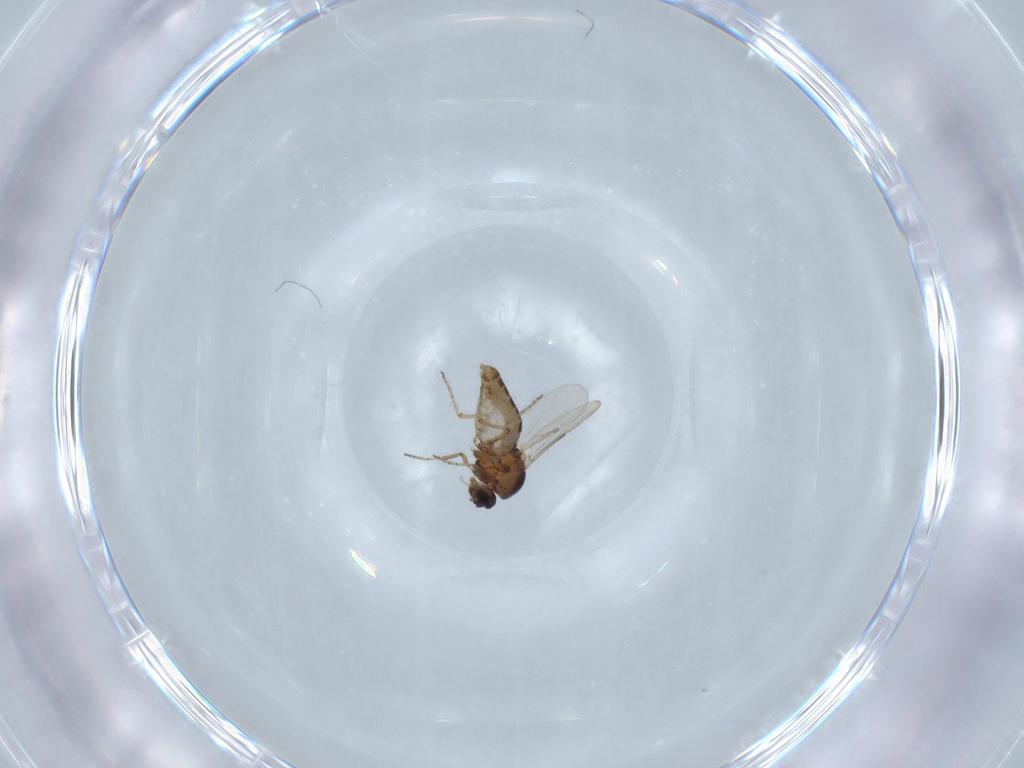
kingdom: Animalia
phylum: Arthropoda
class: Insecta
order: Diptera
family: Ceratopogonidae
